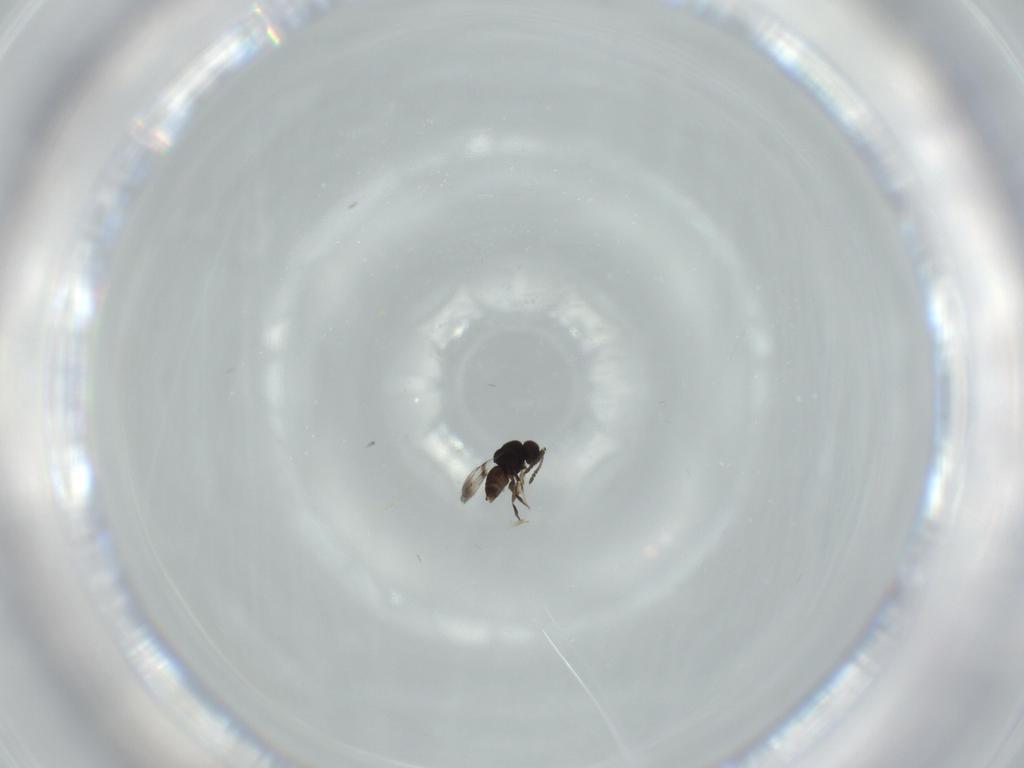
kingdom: Animalia
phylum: Arthropoda
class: Insecta
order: Hymenoptera
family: Ceraphronidae
